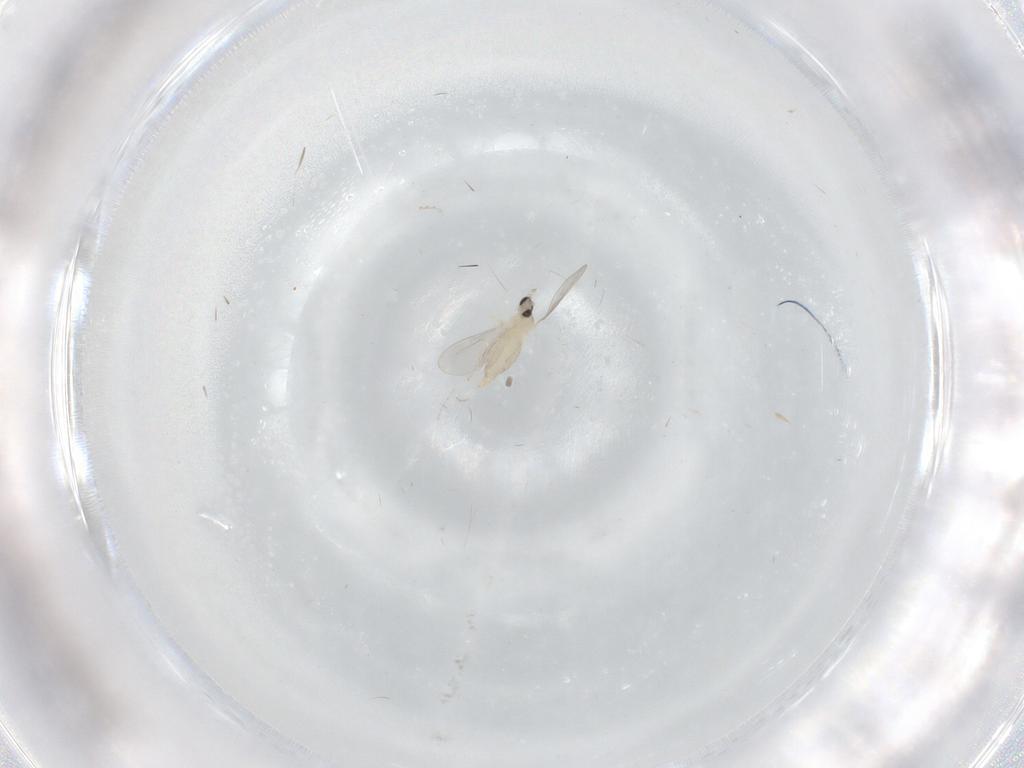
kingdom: Animalia
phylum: Arthropoda
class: Insecta
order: Diptera
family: Cecidomyiidae
